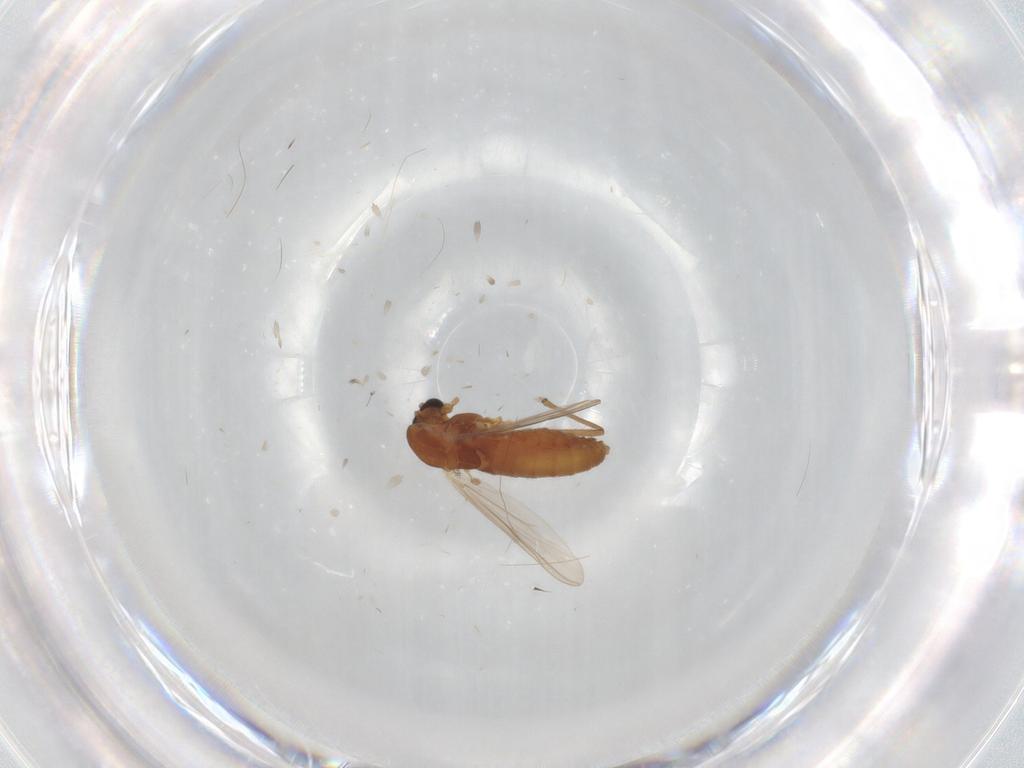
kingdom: Animalia
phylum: Arthropoda
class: Insecta
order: Diptera
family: Chironomidae
